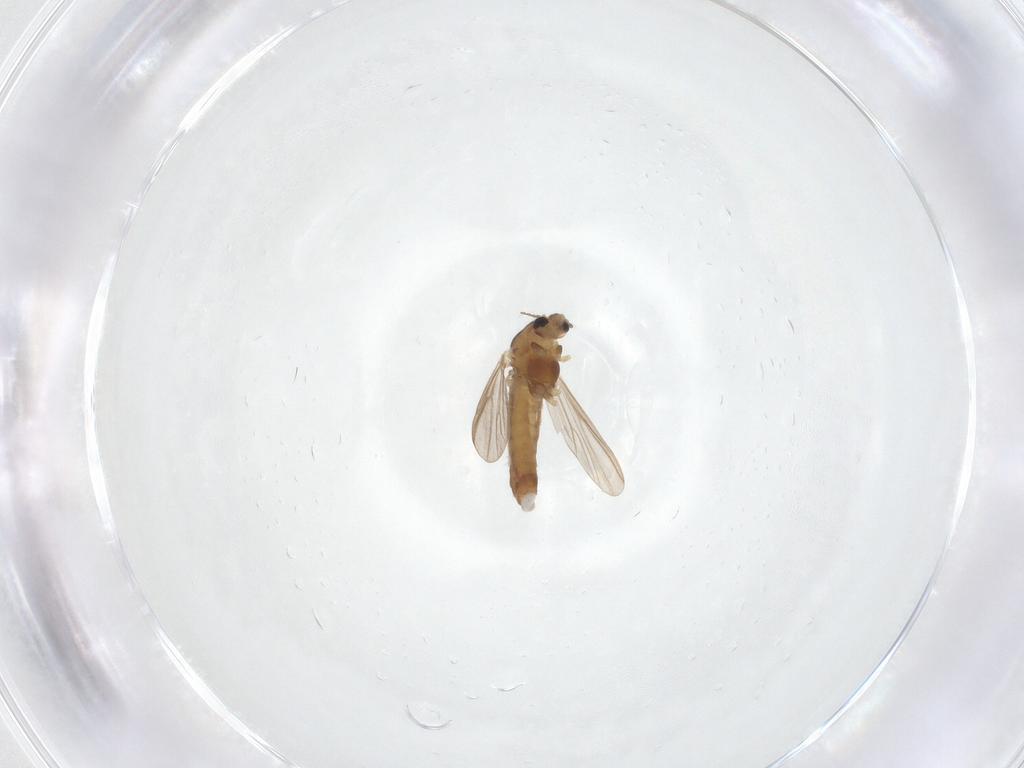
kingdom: Animalia
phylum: Arthropoda
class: Insecta
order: Diptera
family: Chironomidae
